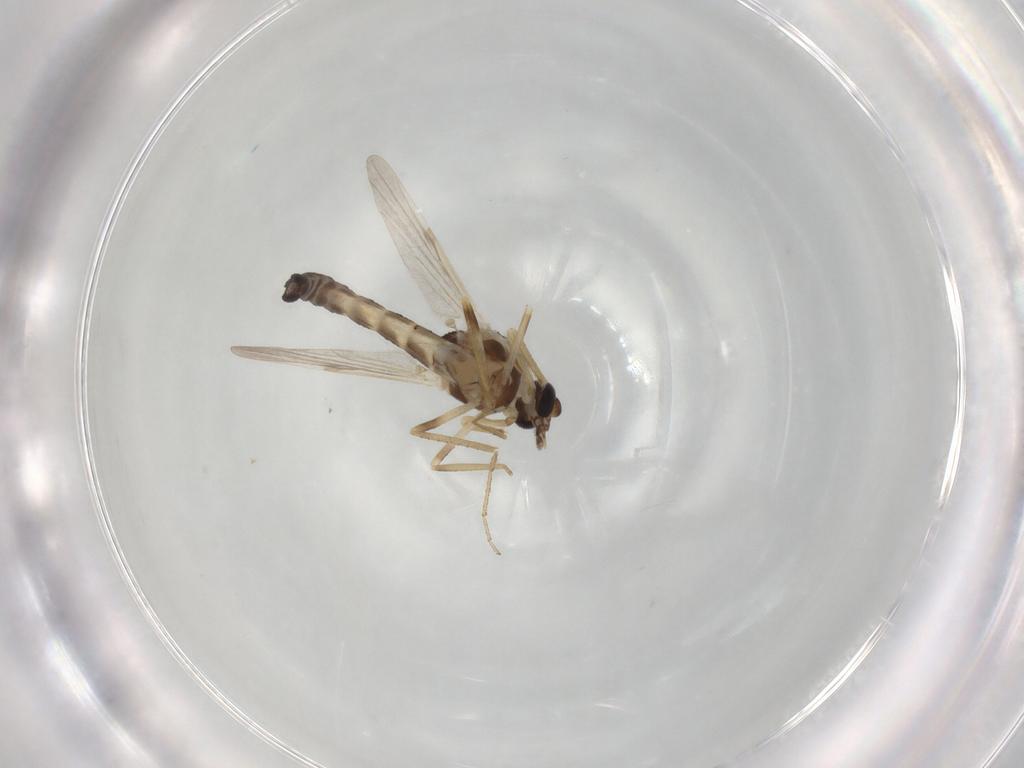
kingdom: Animalia
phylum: Arthropoda
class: Insecta
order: Diptera
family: Ceratopogonidae
